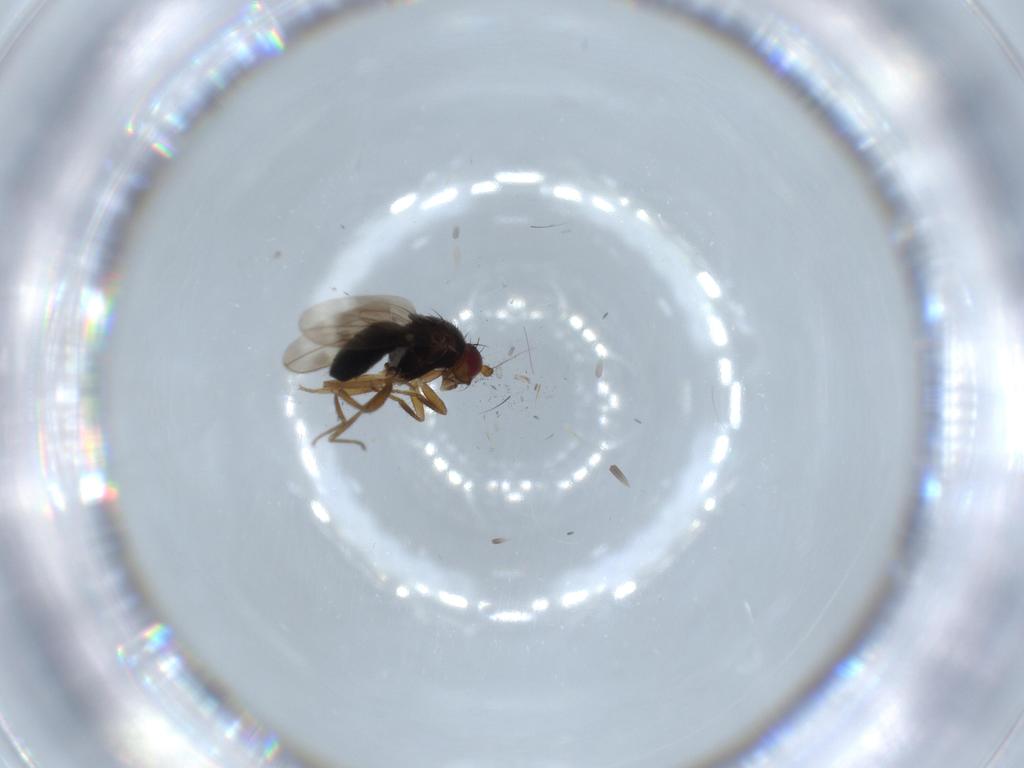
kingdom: Animalia
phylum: Arthropoda
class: Insecta
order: Diptera
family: Sphaeroceridae
